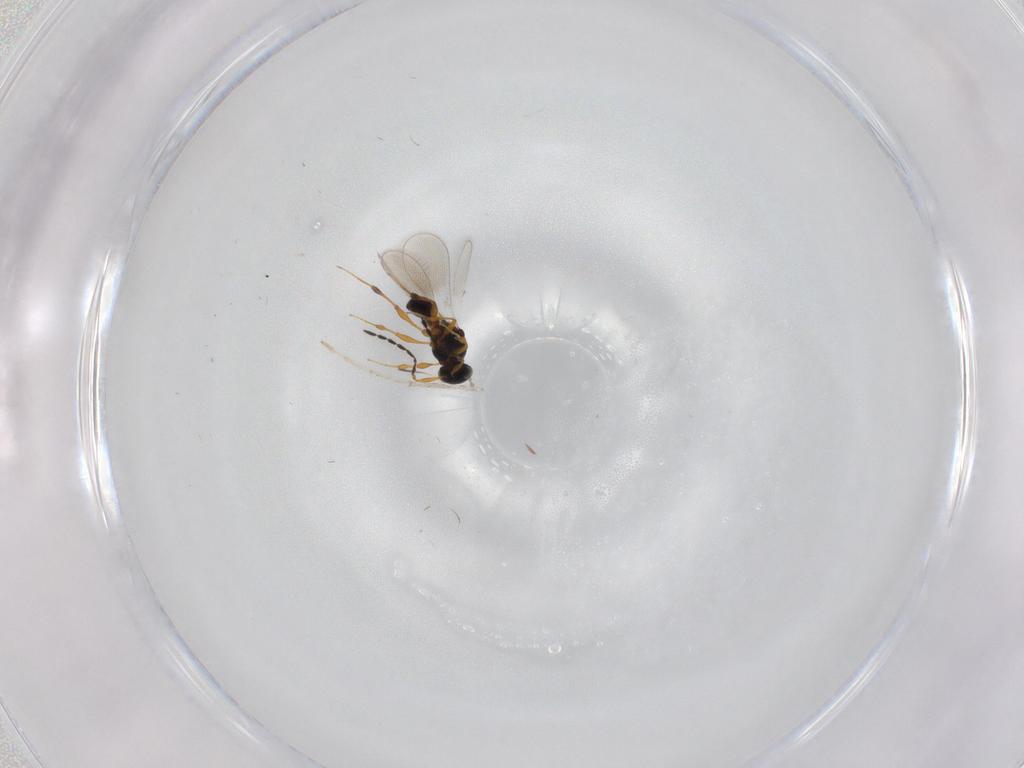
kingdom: Animalia
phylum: Arthropoda
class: Insecta
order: Hymenoptera
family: Platygastridae
